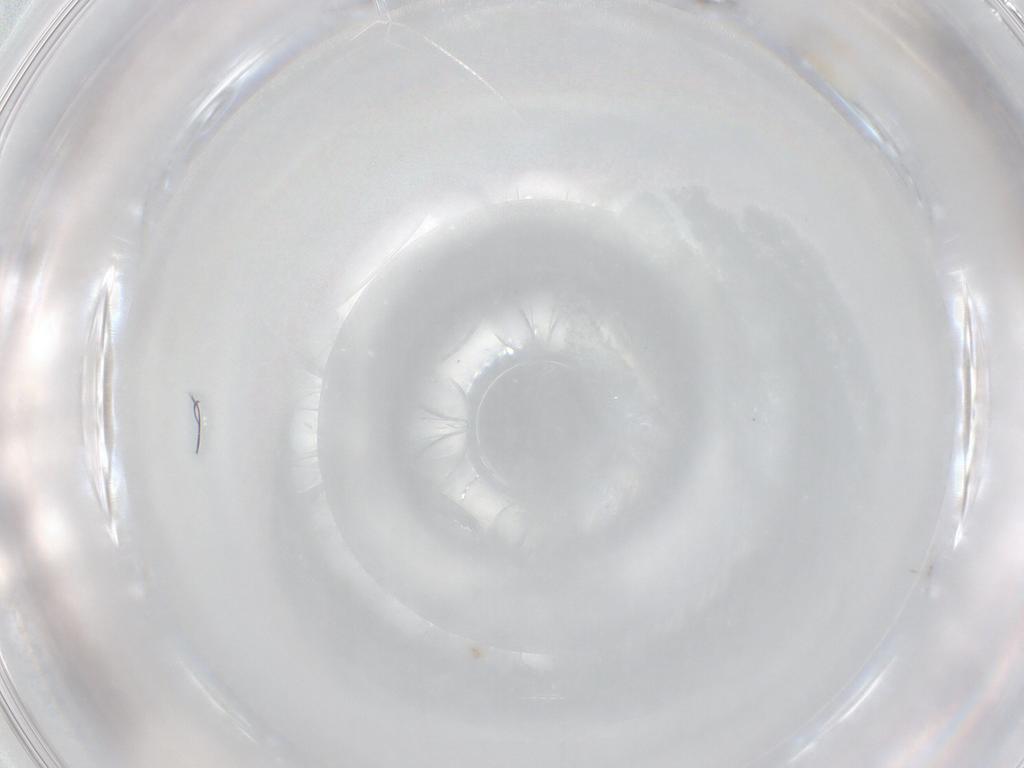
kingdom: Animalia
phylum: Arthropoda
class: Insecta
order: Diptera
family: Cecidomyiidae
